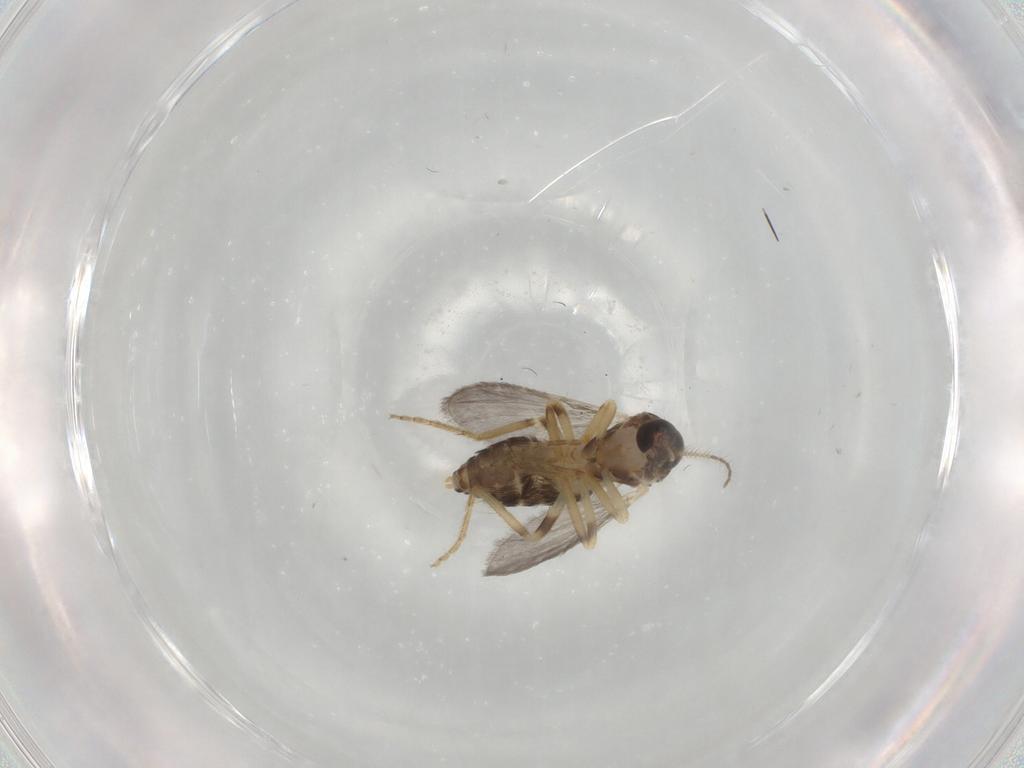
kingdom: Animalia
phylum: Arthropoda
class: Insecta
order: Diptera
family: Ceratopogonidae
